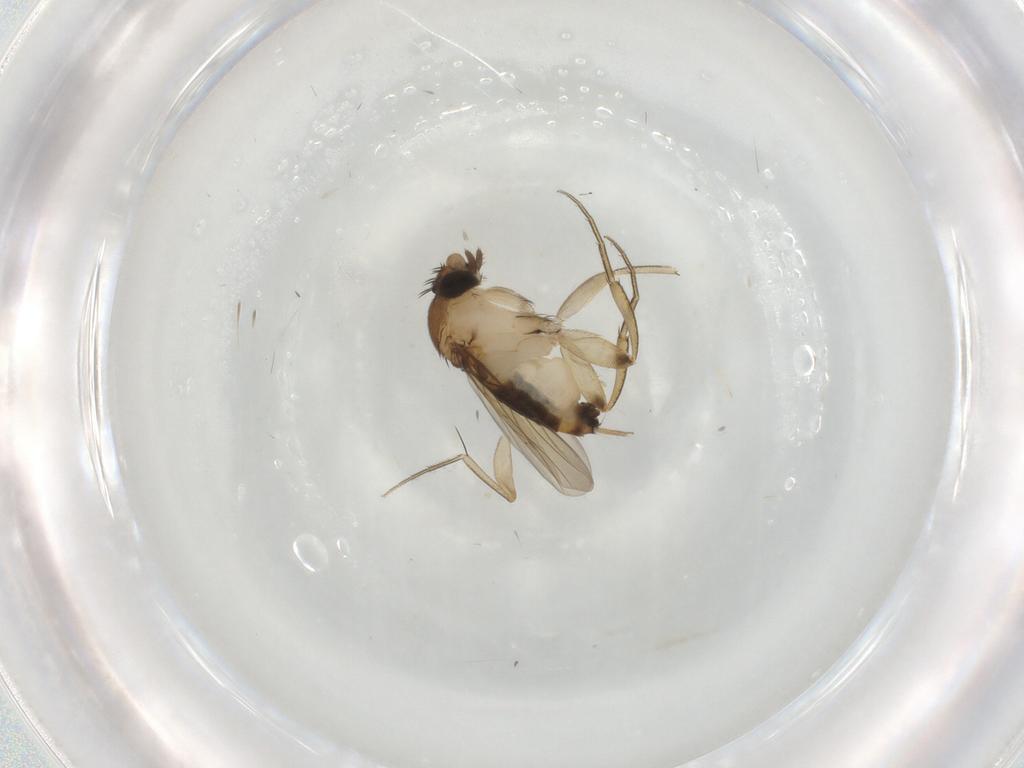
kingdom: Animalia
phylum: Arthropoda
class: Insecta
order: Diptera
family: Phoridae
